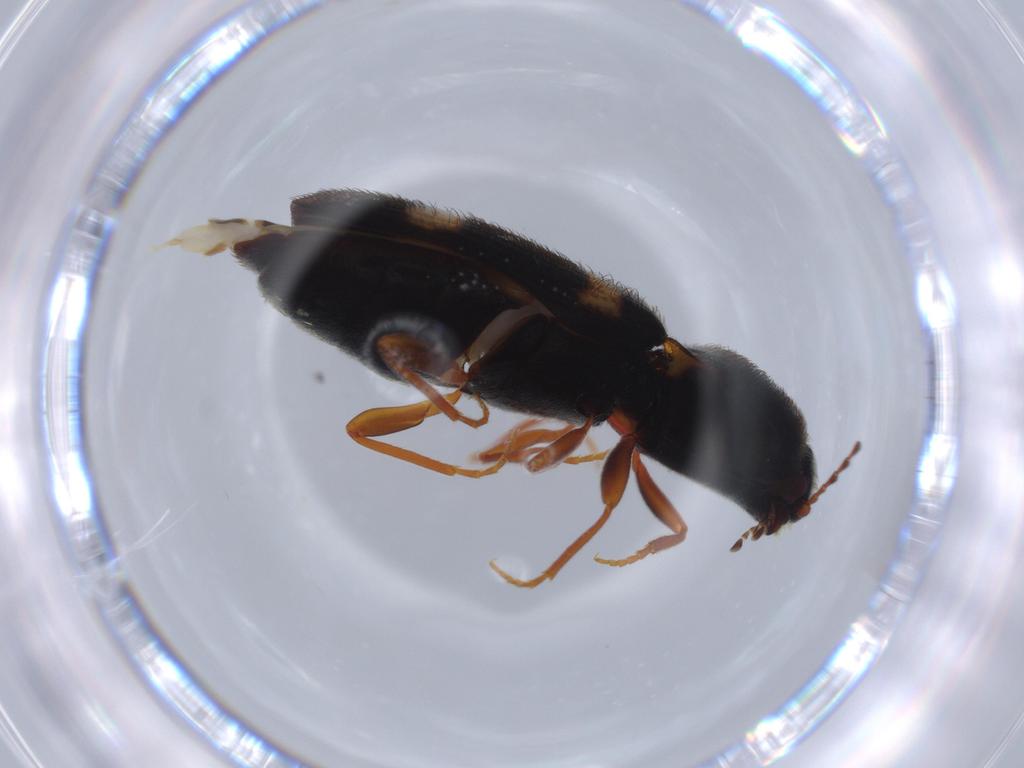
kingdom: Animalia
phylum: Arthropoda
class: Insecta
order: Coleoptera
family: Elateridae
